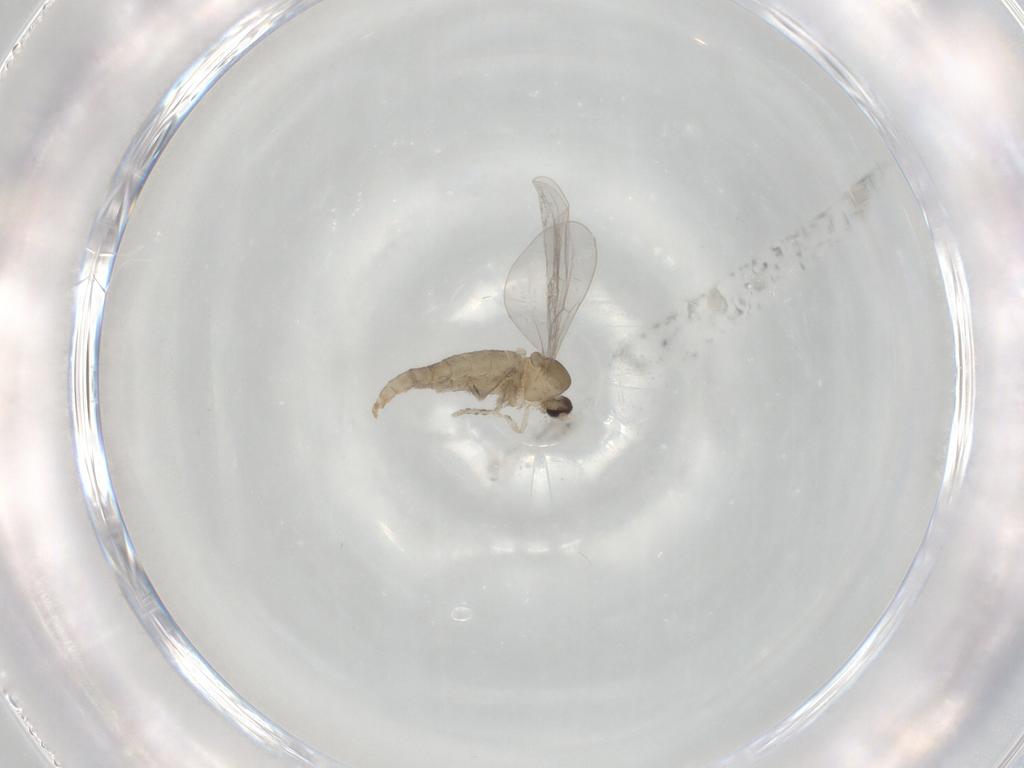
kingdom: Animalia
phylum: Arthropoda
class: Insecta
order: Diptera
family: Cecidomyiidae
